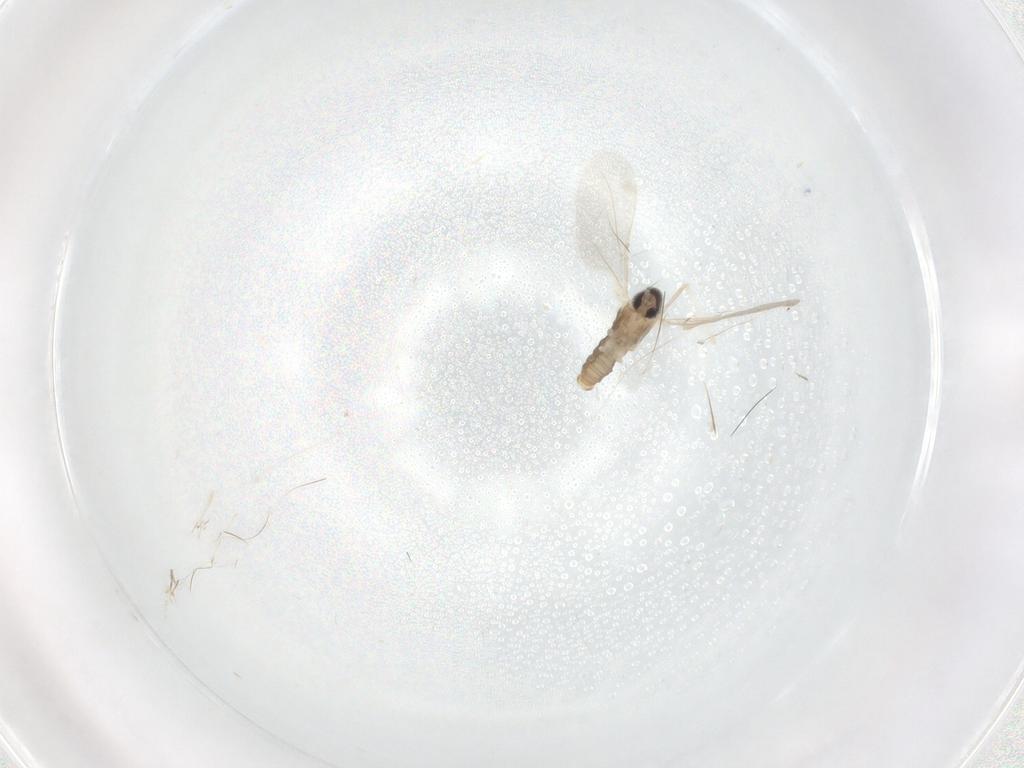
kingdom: Animalia
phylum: Arthropoda
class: Insecta
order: Diptera
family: Cecidomyiidae
